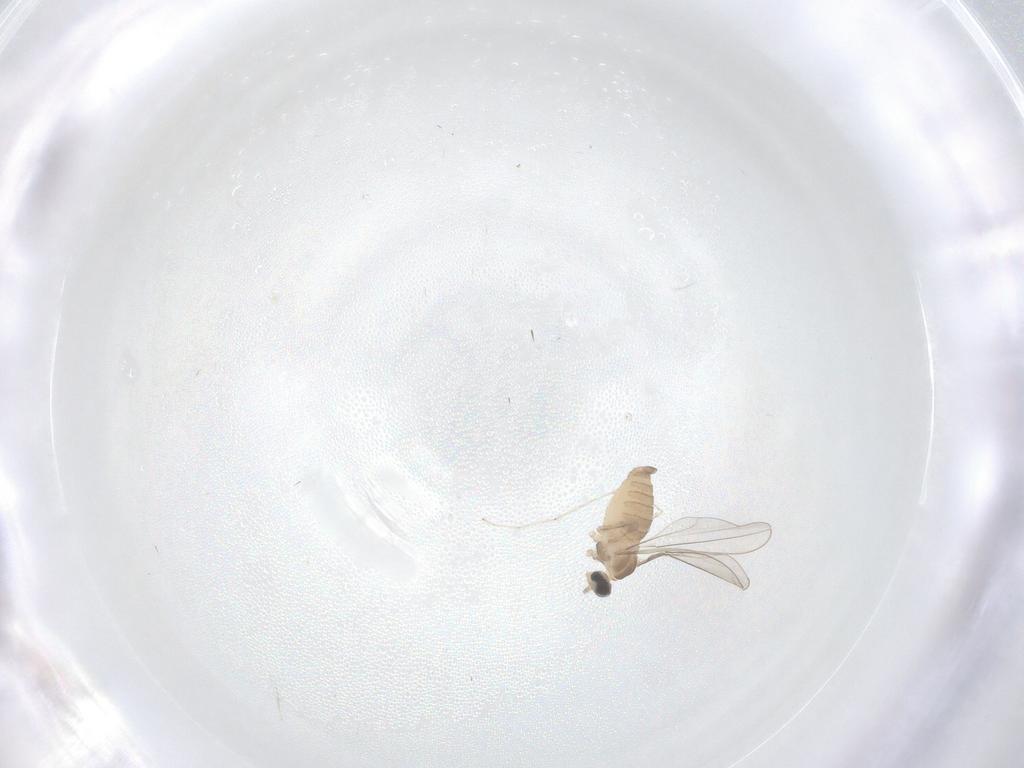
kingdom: Animalia
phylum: Arthropoda
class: Insecta
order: Diptera
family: Cecidomyiidae
